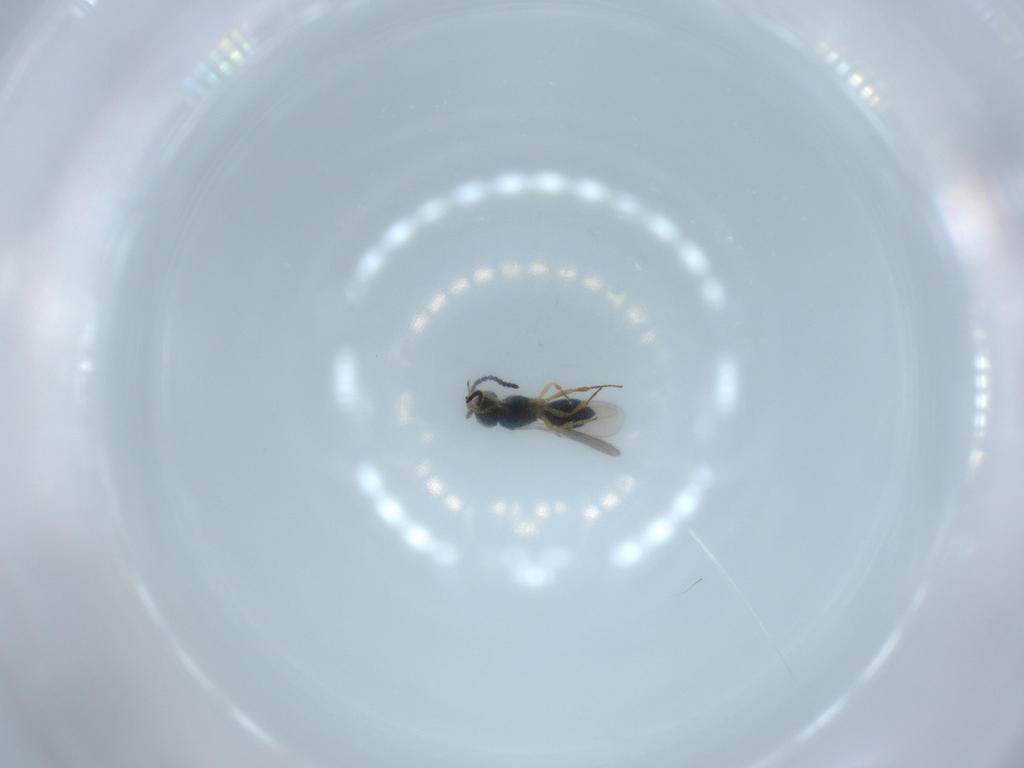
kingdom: Animalia
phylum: Arthropoda
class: Insecta
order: Hymenoptera
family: Scelionidae
